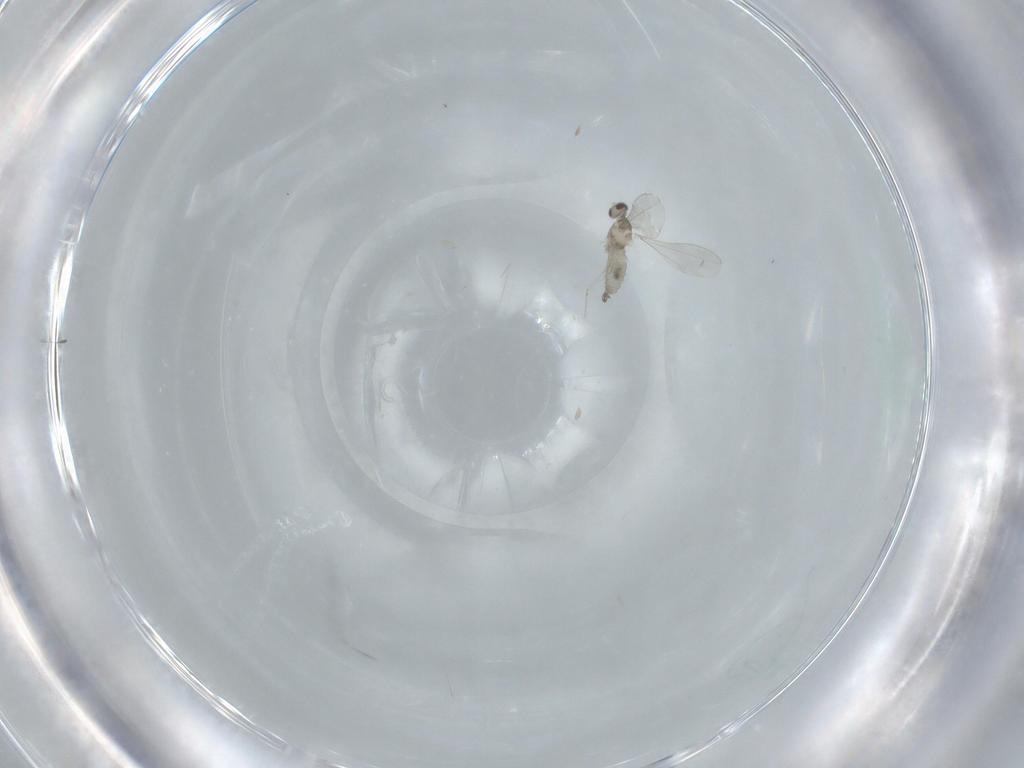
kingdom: Animalia
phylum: Arthropoda
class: Insecta
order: Diptera
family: Cecidomyiidae
